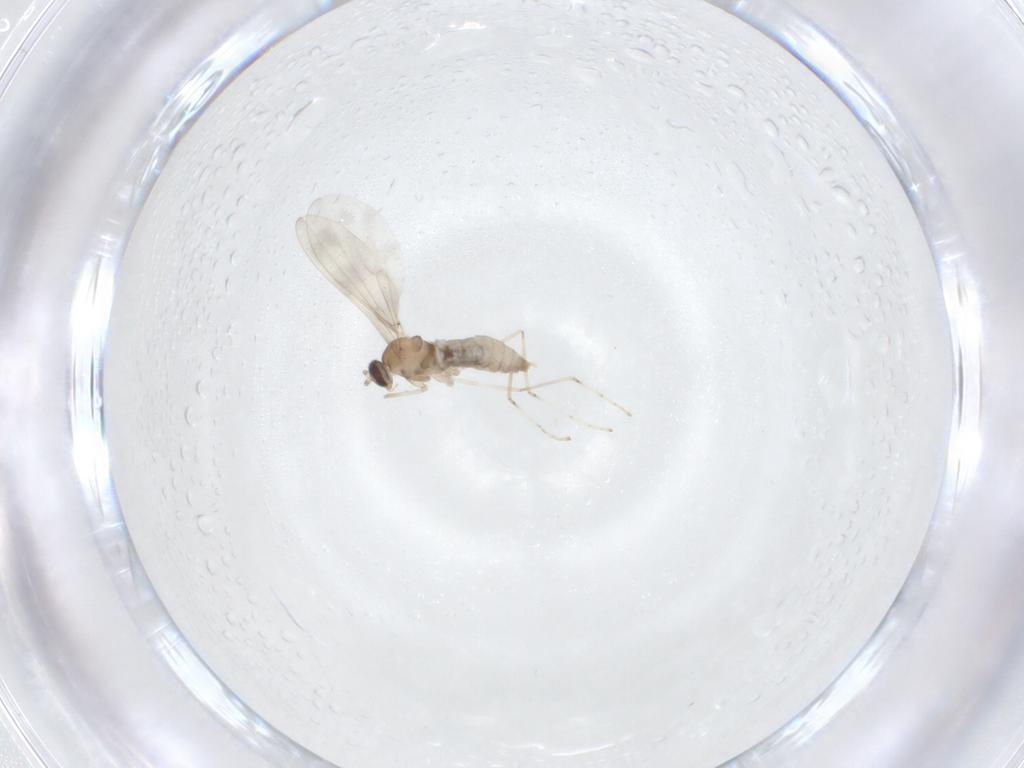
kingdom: Animalia
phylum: Arthropoda
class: Insecta
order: Diptera
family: Cecidomyiidae
